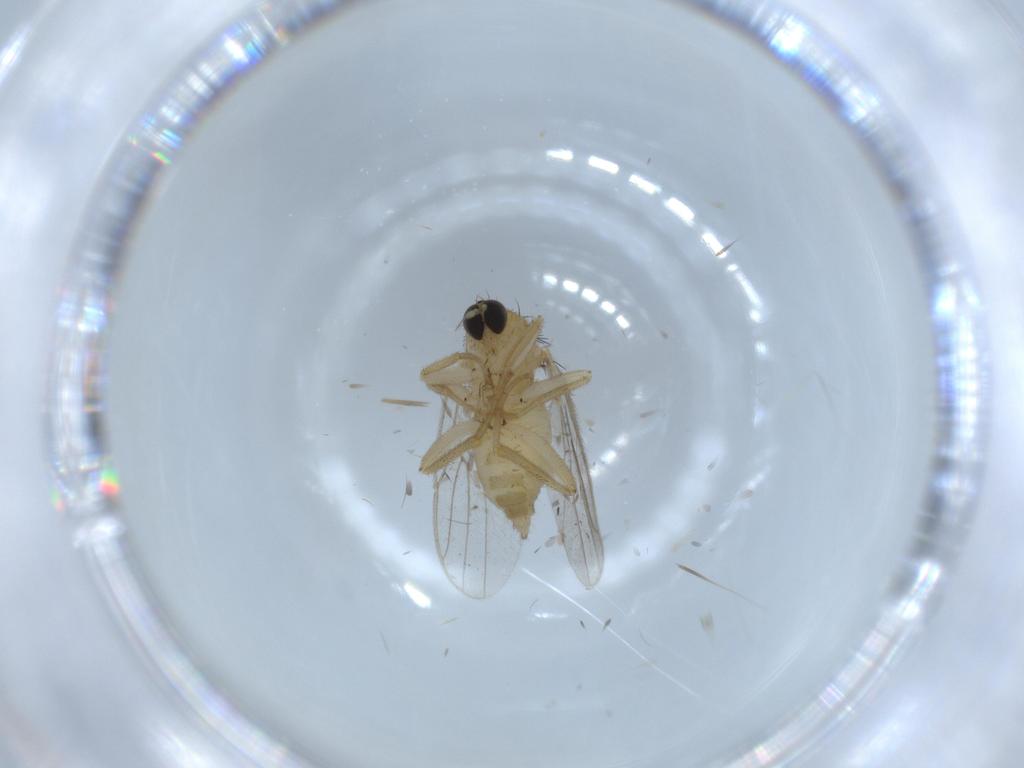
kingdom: Animalia
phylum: Arthropoda
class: Insecta
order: Diptera
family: Hybotidae
